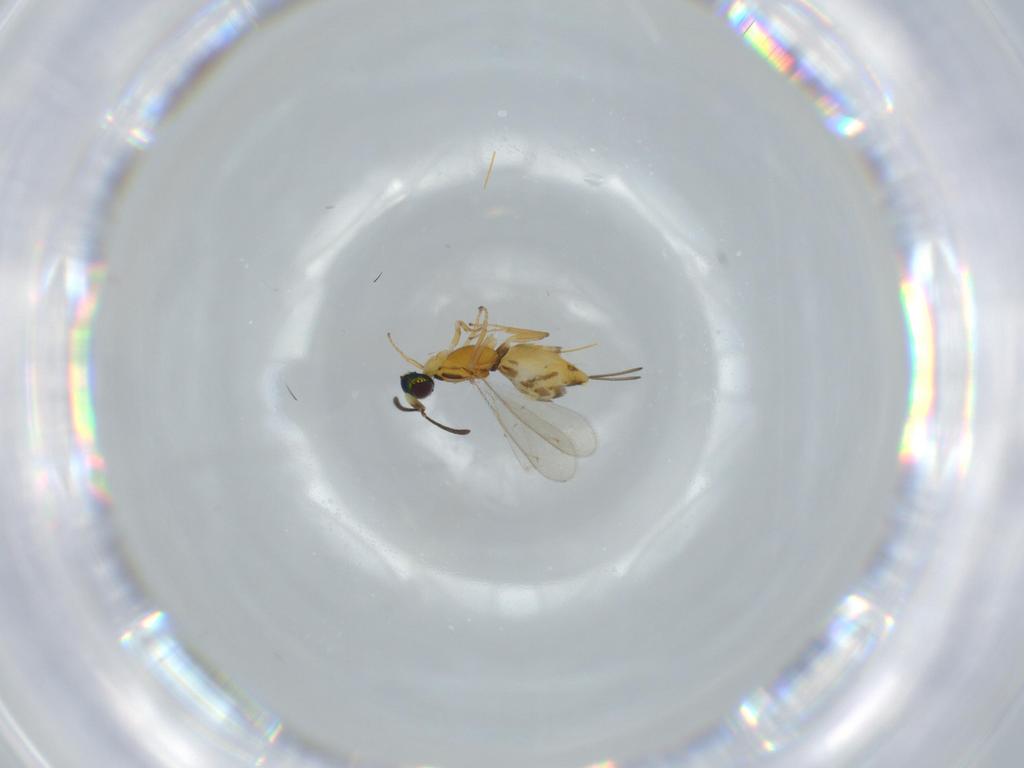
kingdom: Animalia
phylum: Arthropoda
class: Insecta
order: Hymenoptera
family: Eupelmidae
